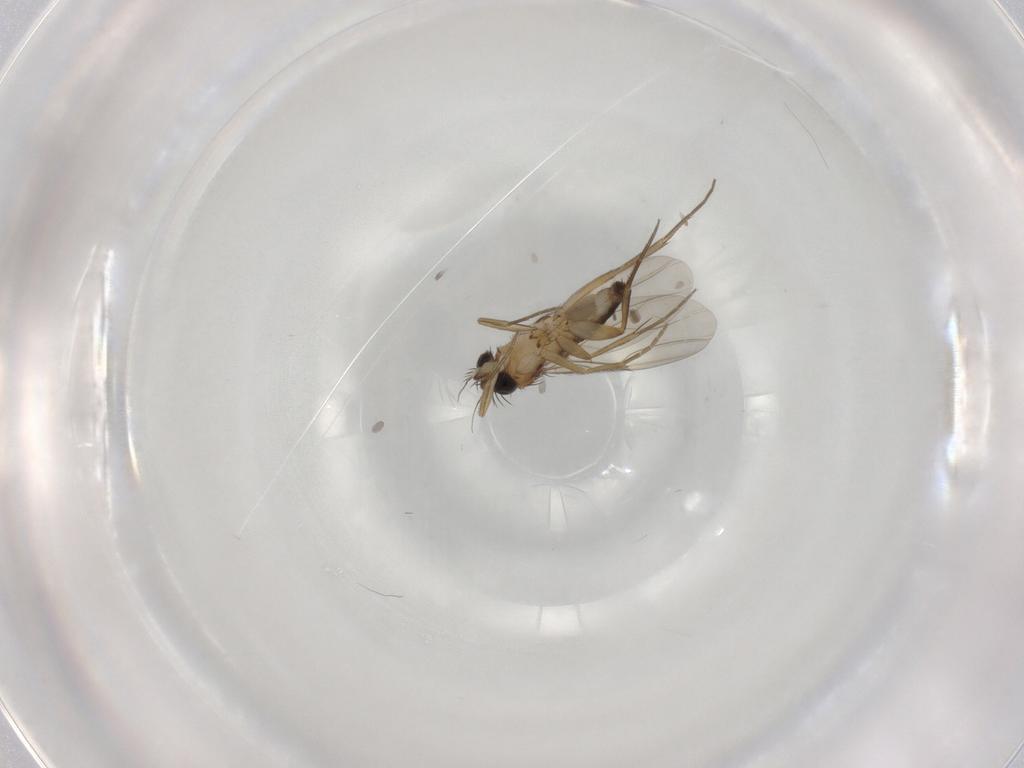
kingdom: Animalia
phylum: Arthropoda
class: Insecta
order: Diptera
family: Phoridae
